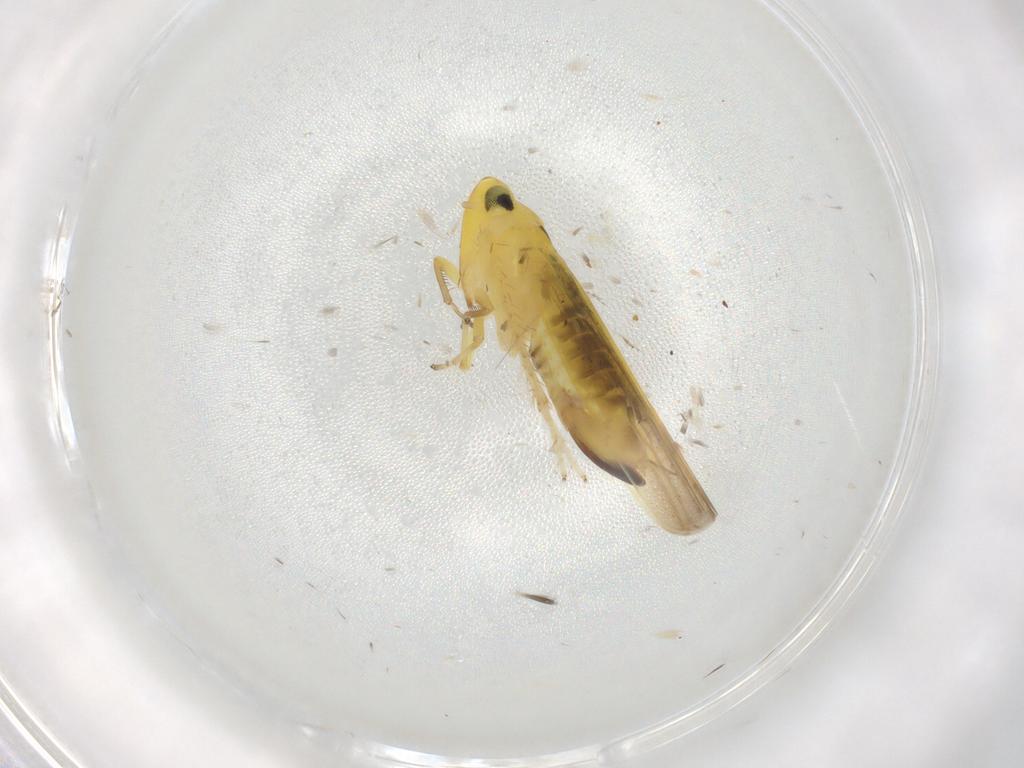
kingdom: Animalia
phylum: Arthropoda
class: Insecta
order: Hemiptera
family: Cicadellidae
